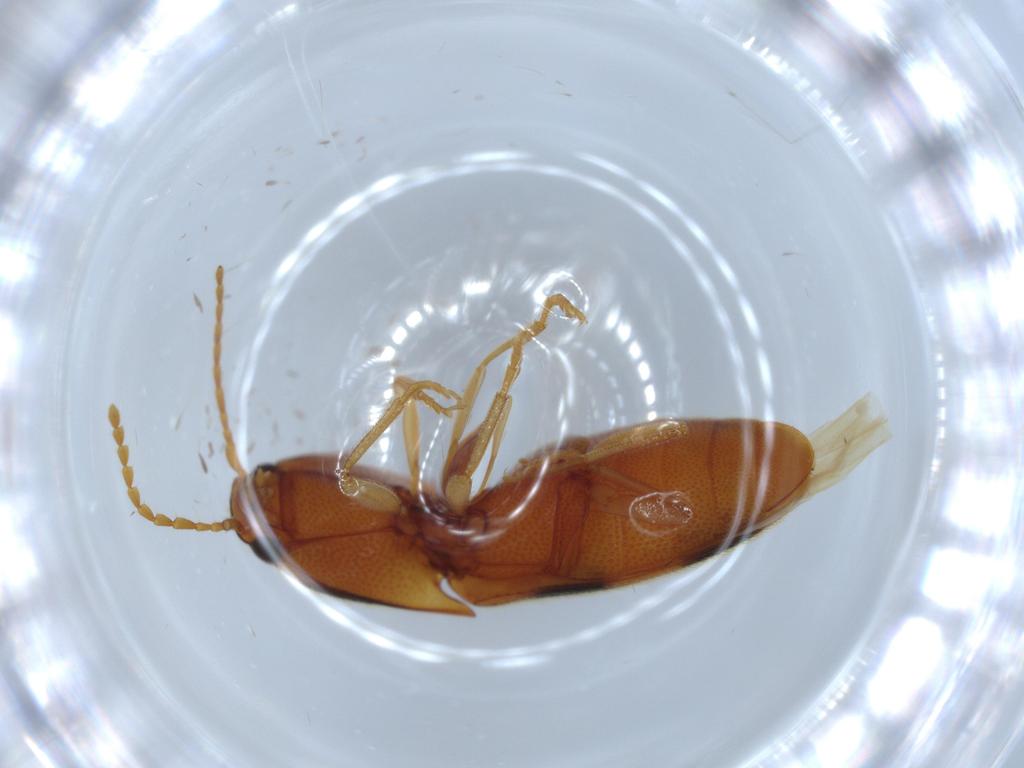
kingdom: Animalia
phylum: Arthropoda
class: Insecta
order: Coleoptera
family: Elateridae
